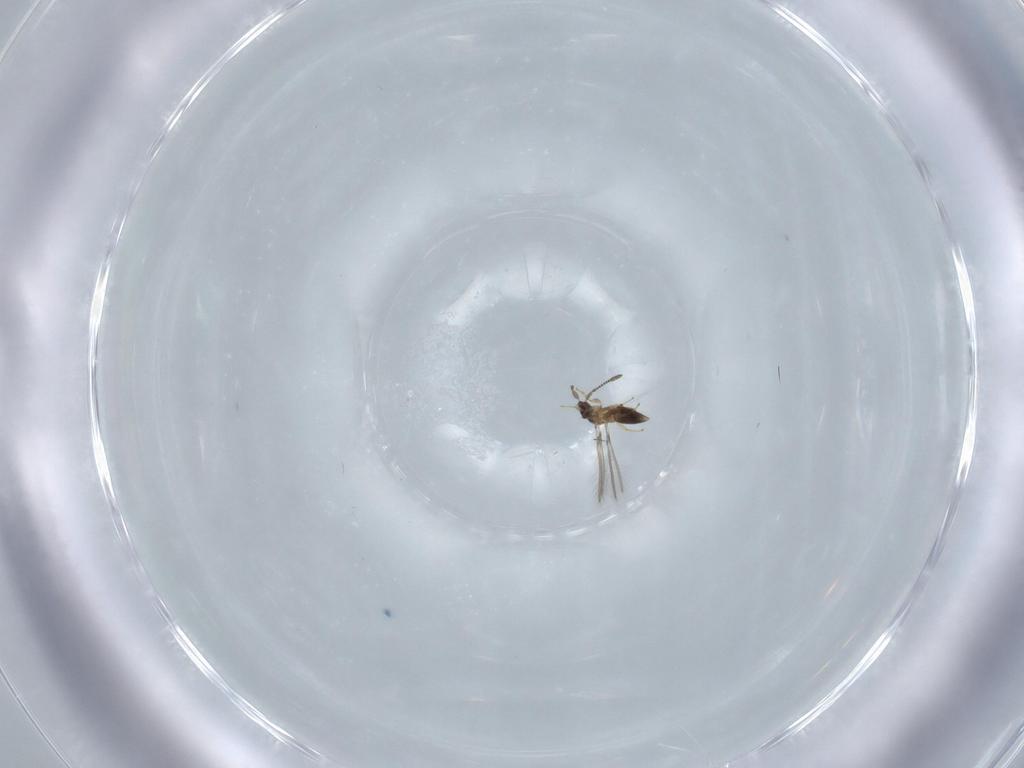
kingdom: Animalia
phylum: Arthropoda
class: Insecta
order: Hymenoptera
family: Mymaridae
